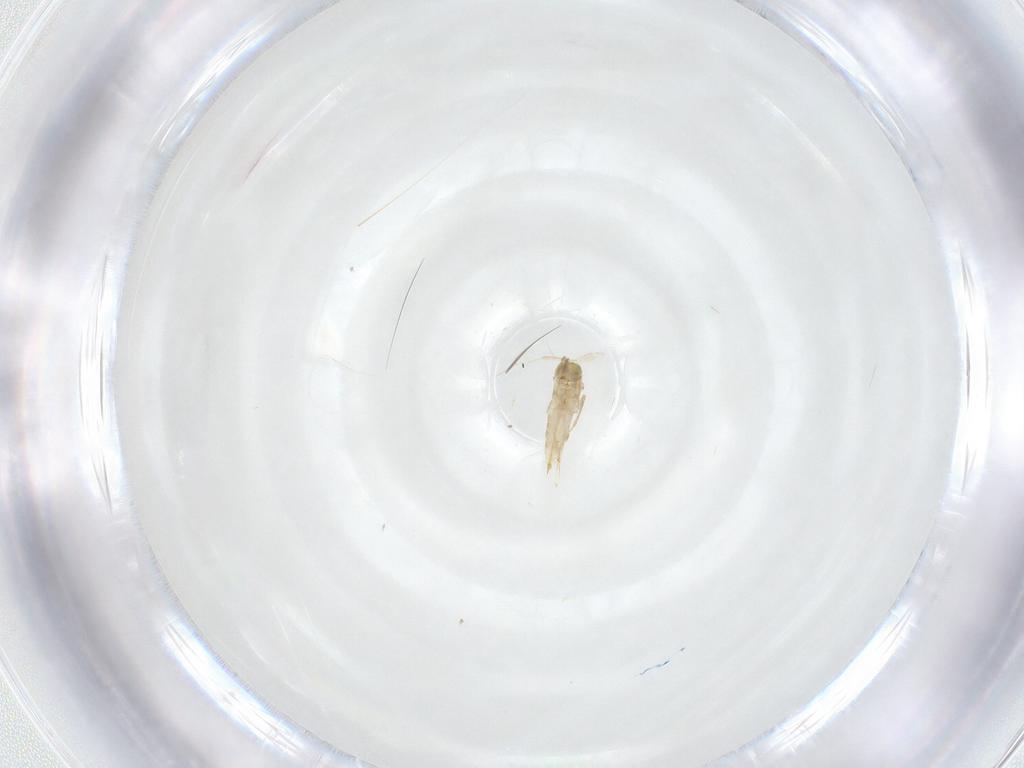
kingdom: Animalia
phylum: Arthropoda
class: Insecta
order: Hymenoptera
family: Aphelinidae
